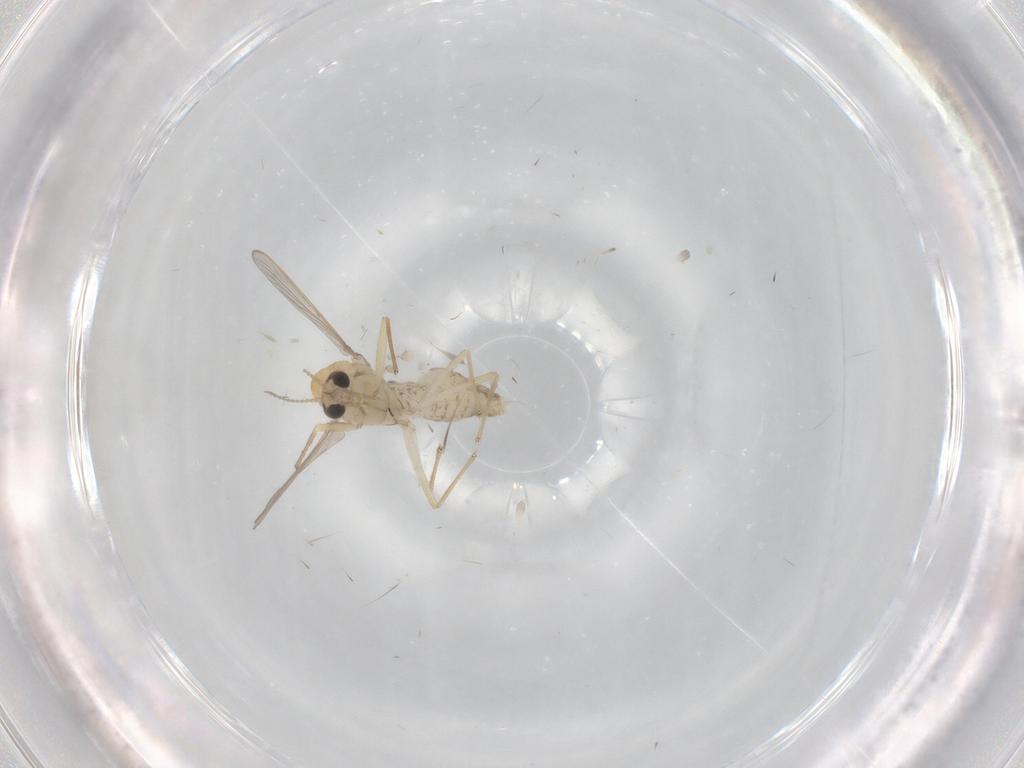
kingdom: Animalia
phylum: Arthropoda
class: Insecta
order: Diptera
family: Chironomidae
